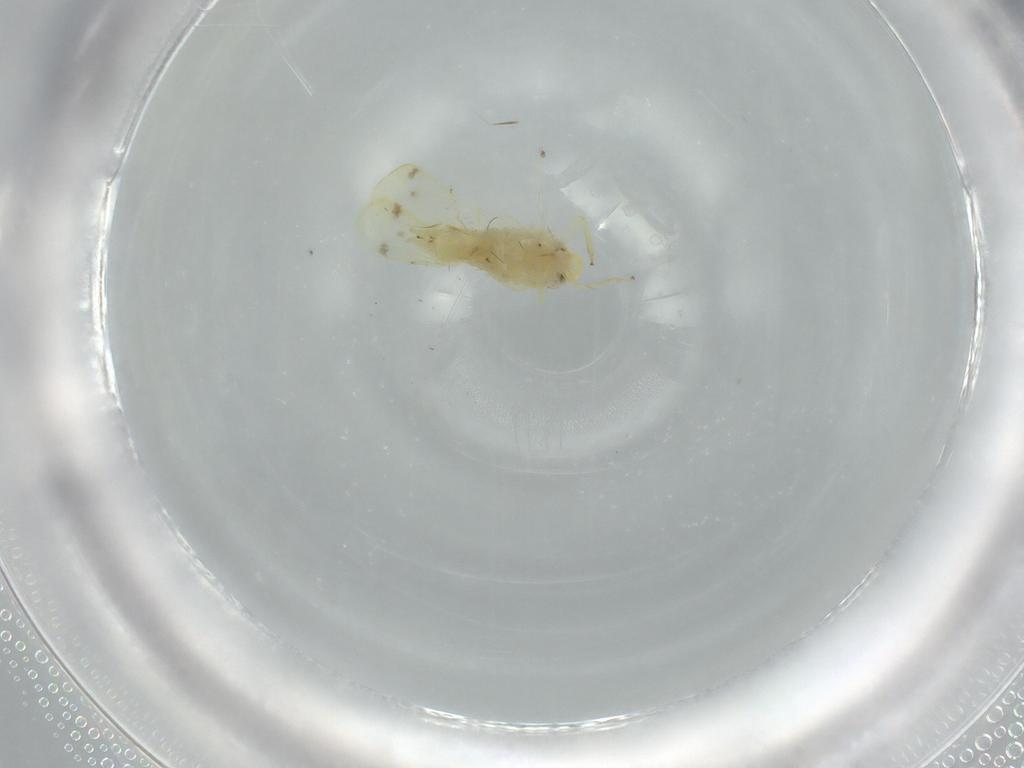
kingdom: Animalia
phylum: Arthropoda
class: Insecta
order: Hemiptera
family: Cicadellidae
